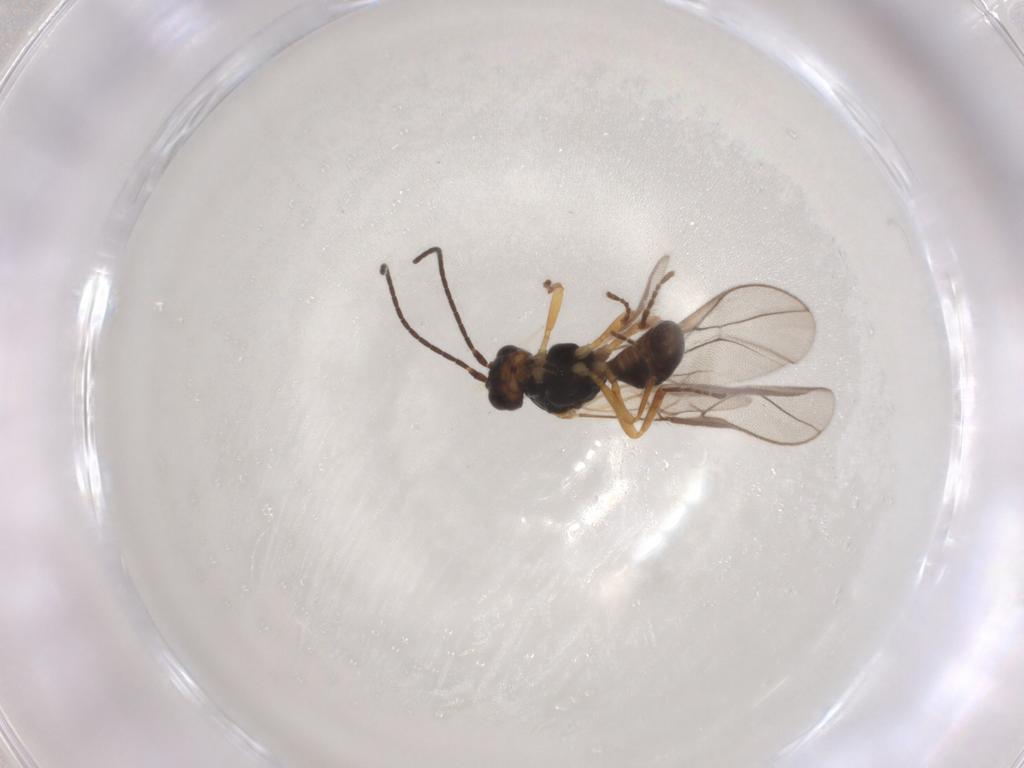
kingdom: Animalia
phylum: Arthropoda
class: Insecta
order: Hymenoptera
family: Braconidae
